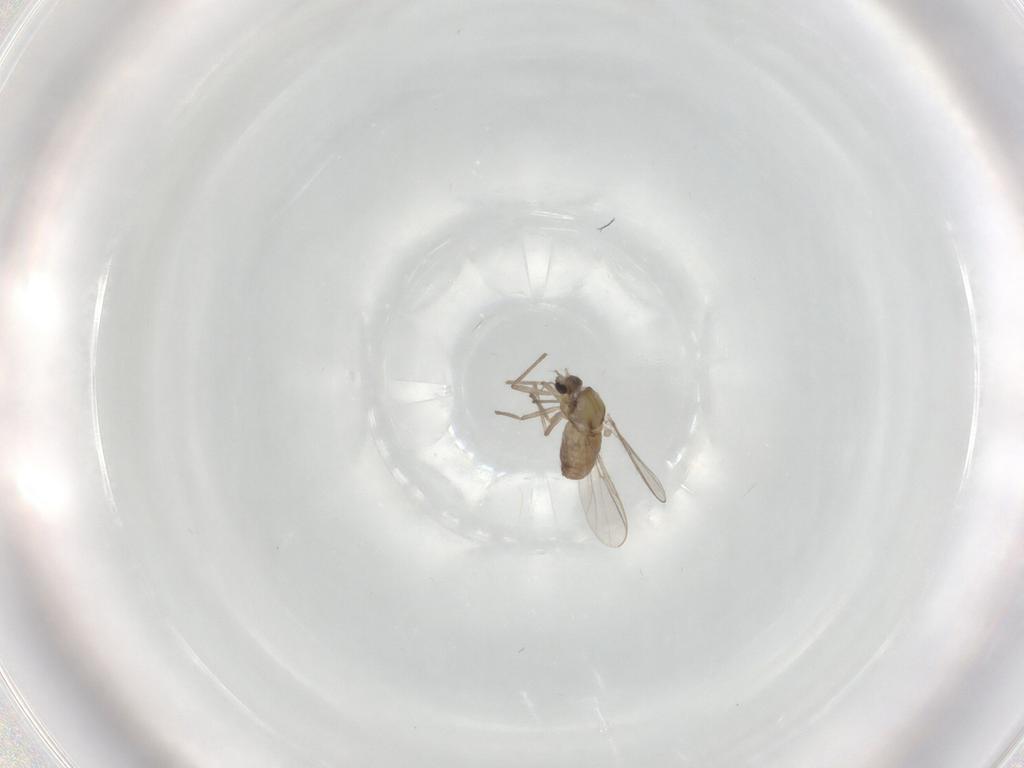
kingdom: Animalia
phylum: Arthropoda
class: Insecta
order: Diptera
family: Chironomidae
